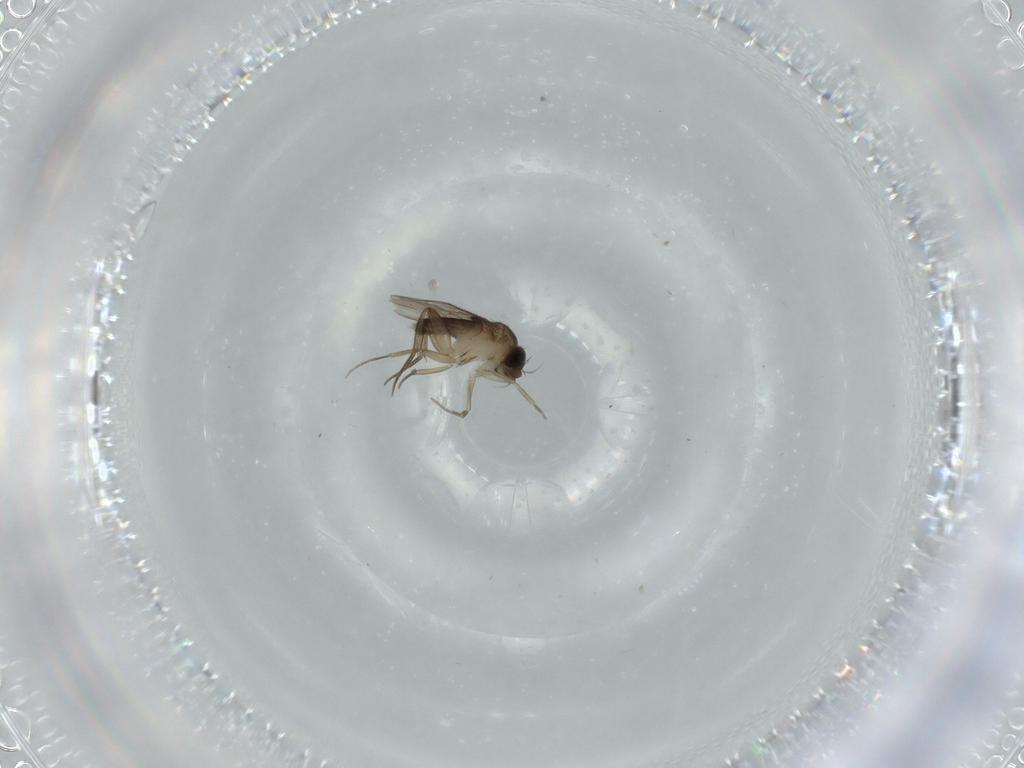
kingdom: Animalia
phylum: Arthropoda
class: Insecta
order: Diptera
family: Phoridae
